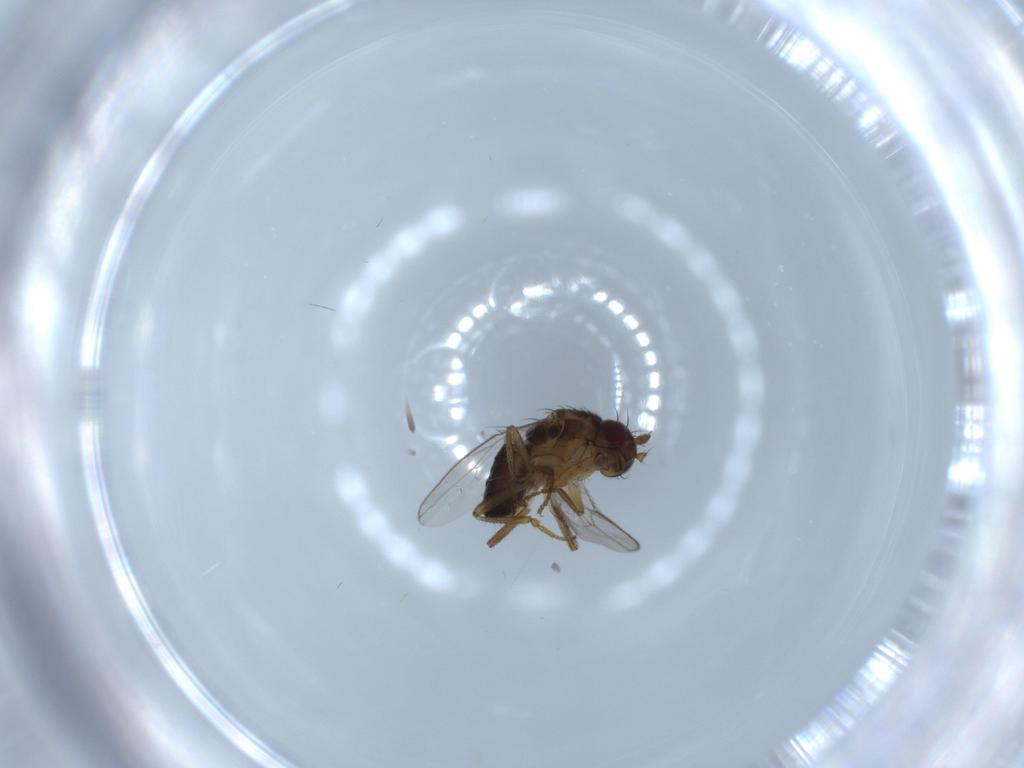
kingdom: Animalia
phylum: Arthropoda
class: Insecta
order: Diptera
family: Sphaeroceridae
